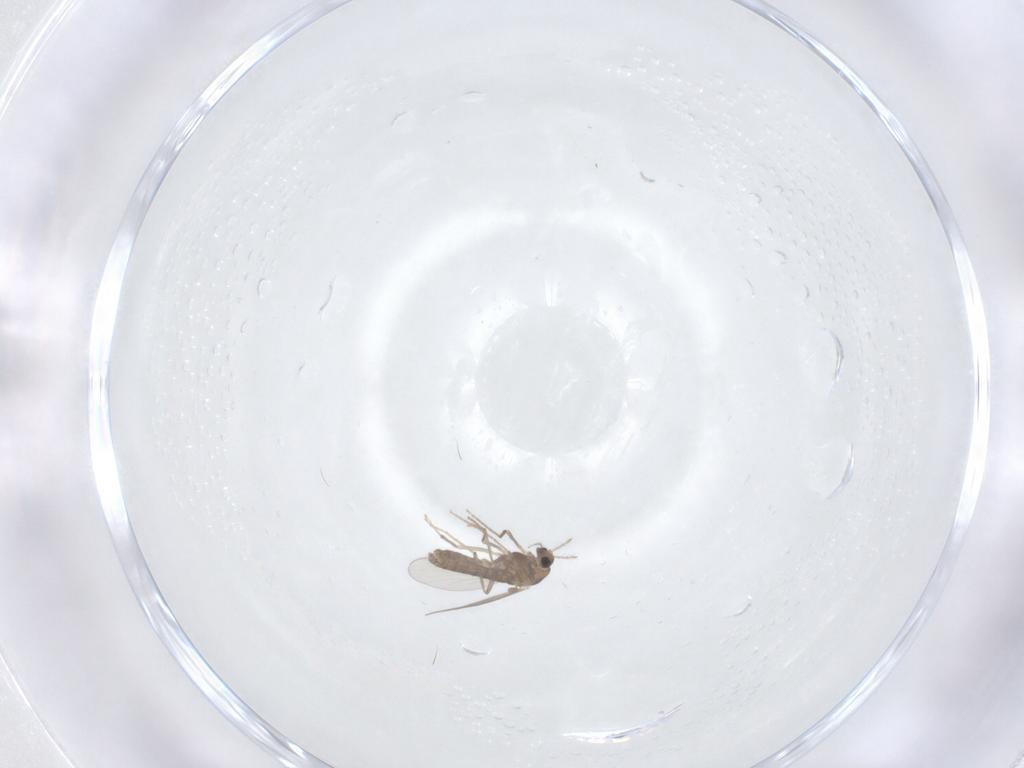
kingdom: Animalia
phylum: Arthropoda
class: Insecta
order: Diptera
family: Chironomidae
